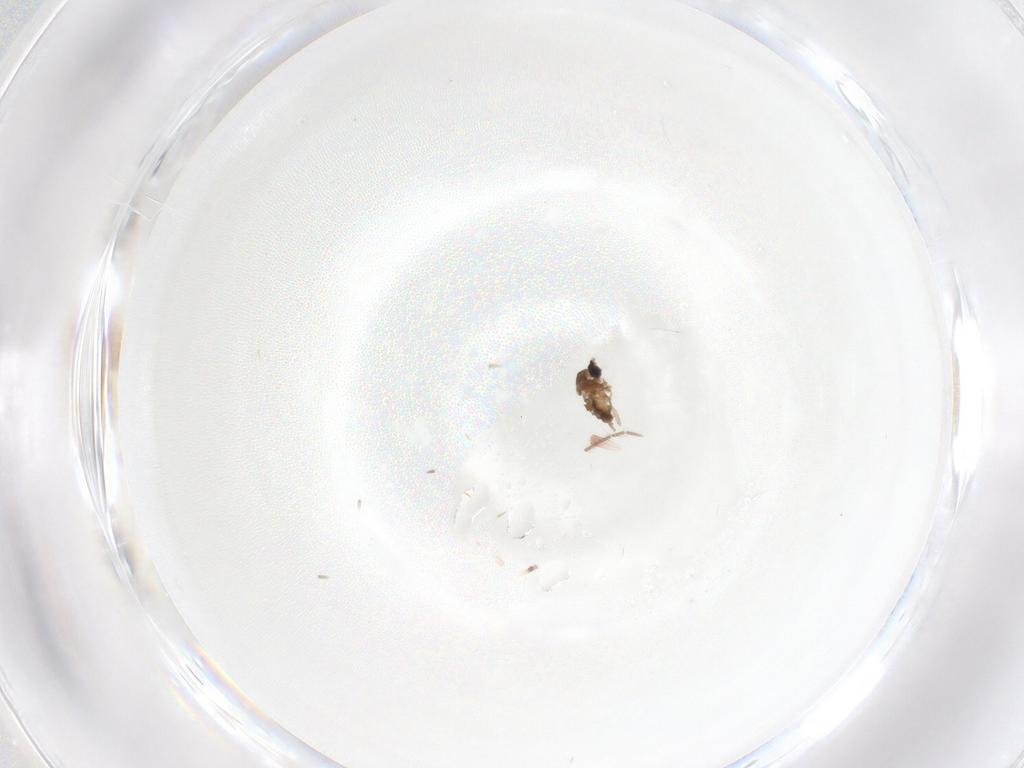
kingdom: Animalia
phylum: Arthropoda
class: Insecta
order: Diptera
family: Cecidomyiidae
